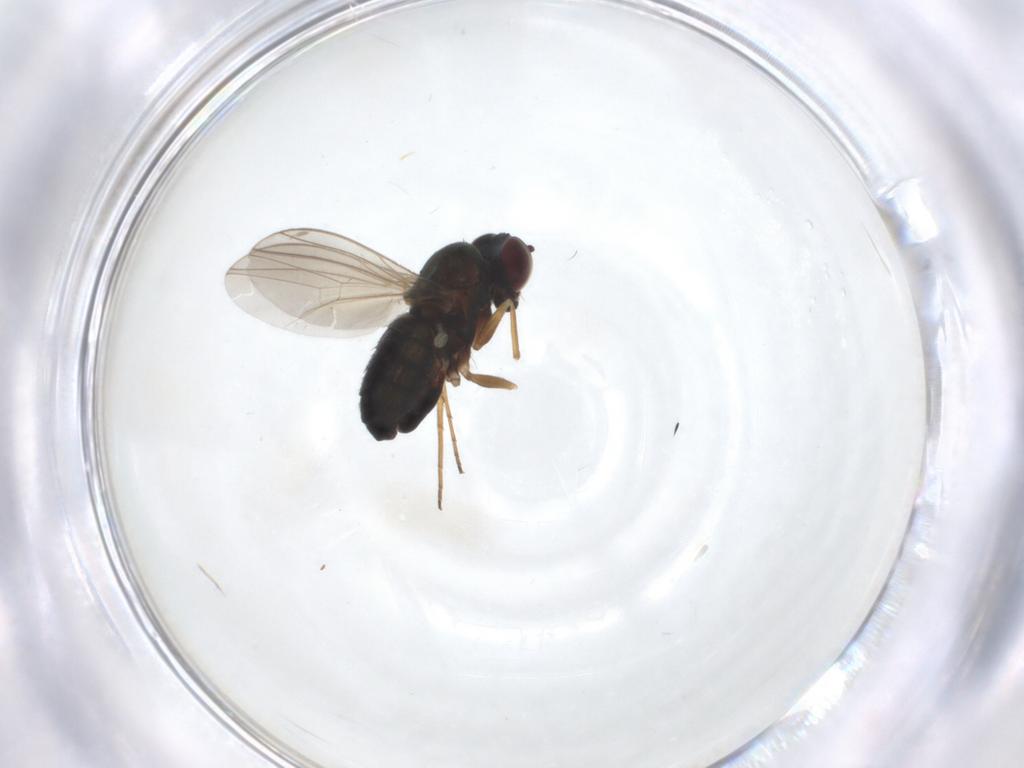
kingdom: Animalia
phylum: Arthropoda
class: Insecta
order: Diptera
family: Dolichopodidae
